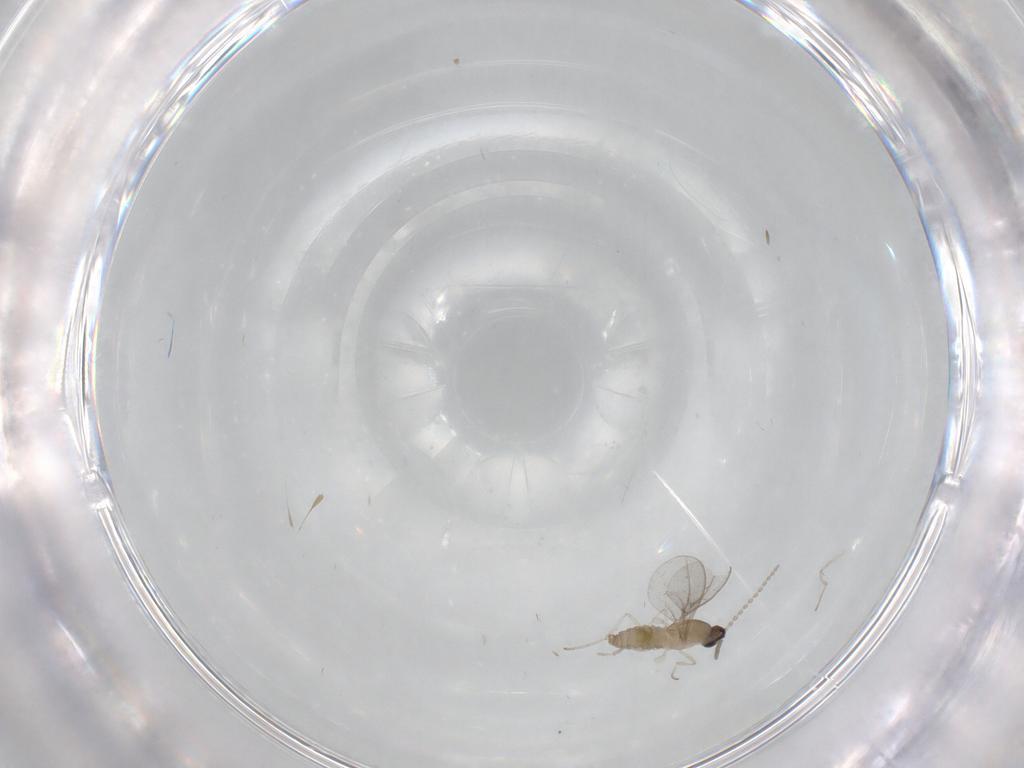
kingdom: Animalia
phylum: Arthropoda
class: Insecta
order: Diptera
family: Cecidomyiidae
